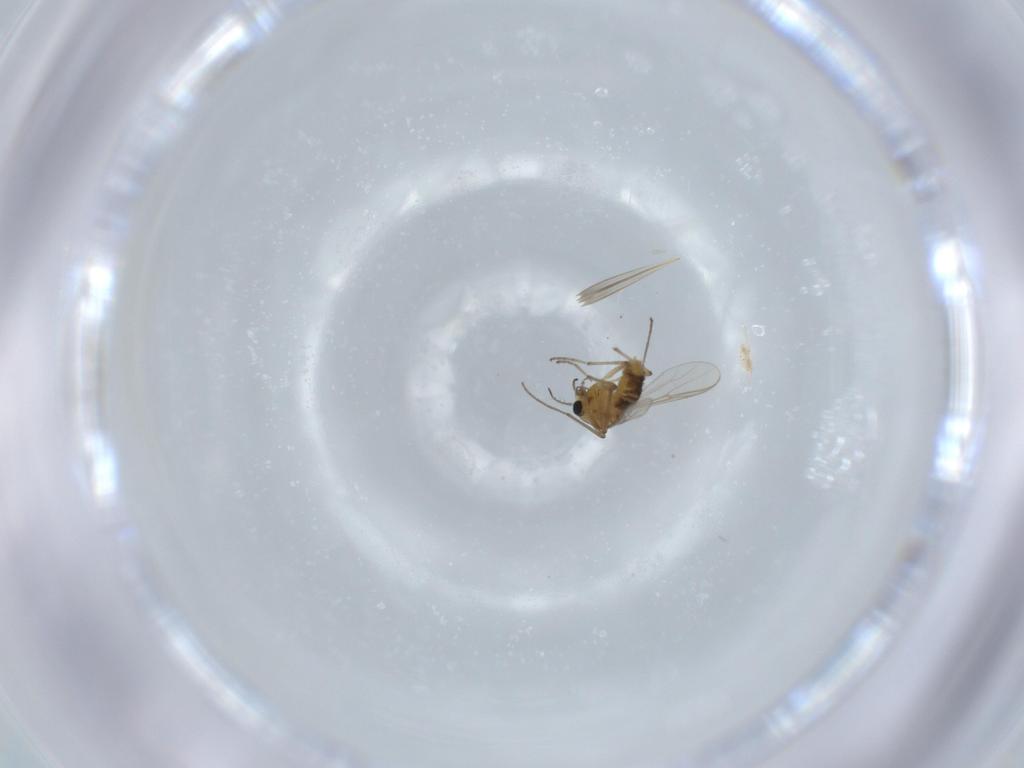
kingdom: Animalia
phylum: Arthropoda
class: Insecta
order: Diptera
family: Chironomidae
